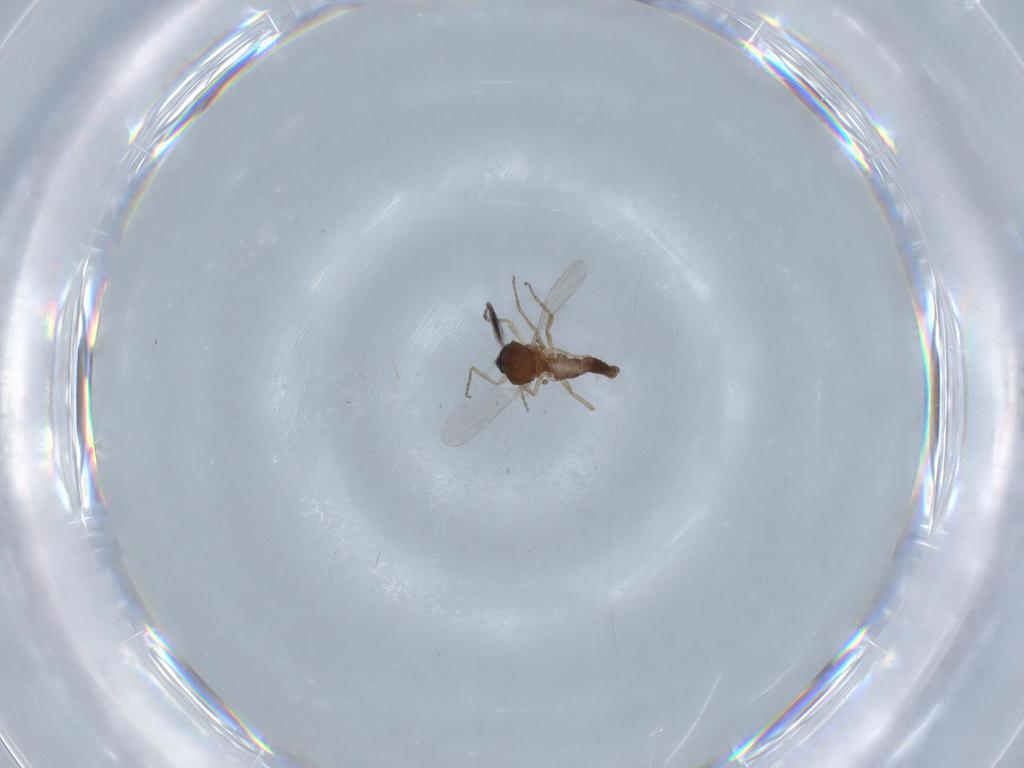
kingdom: Animalia
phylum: Arthropoda
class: Insecta
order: Diptera
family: Ceratopogonidae
